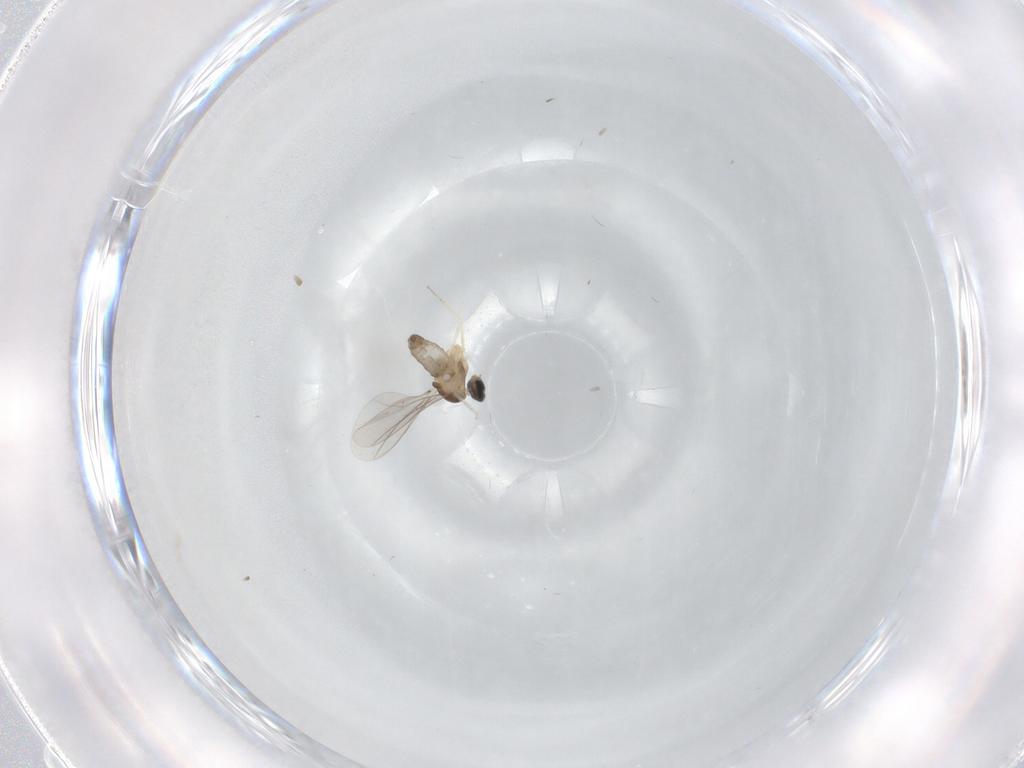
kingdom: Animalia
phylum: Arthropoda
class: Insecta
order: Diptera
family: Cecidomyiidae
